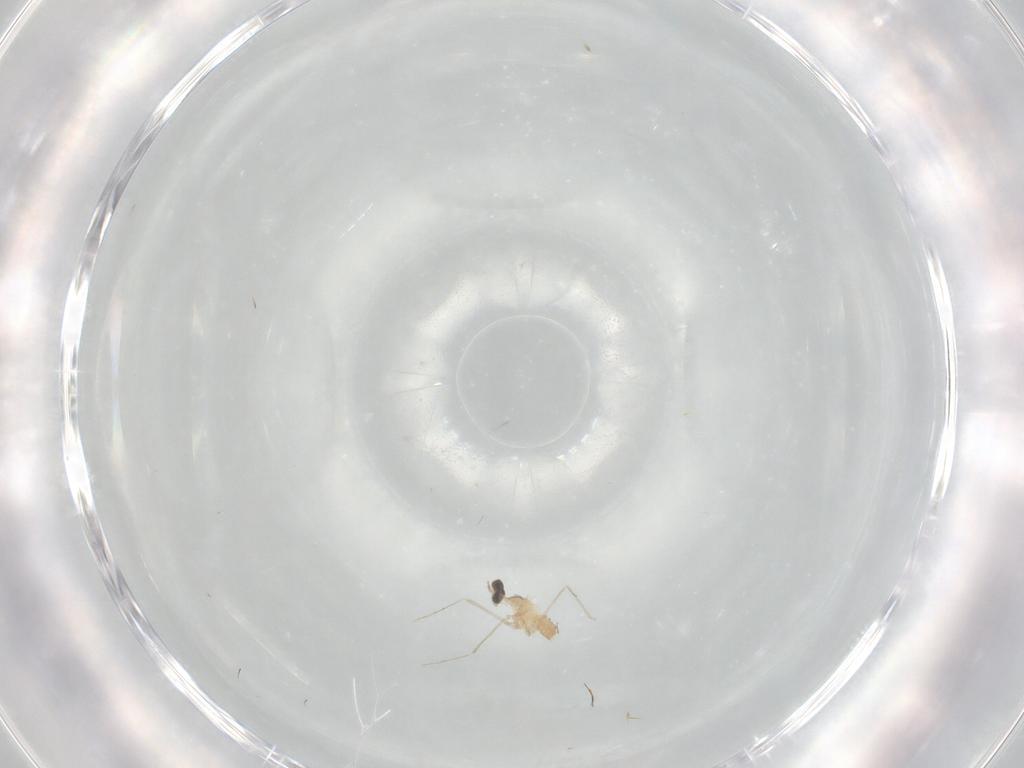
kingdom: Animalia
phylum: Arthropoda
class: Insecta
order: Diptera
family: Cecidomyiidae
